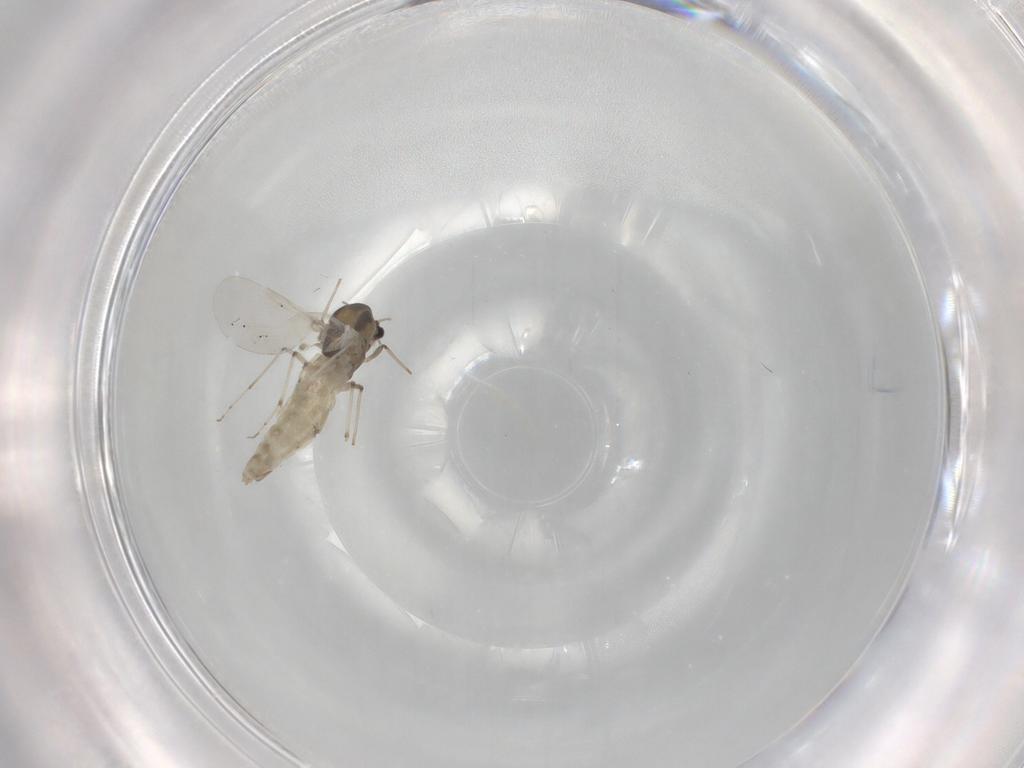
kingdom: Animalia
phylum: Arthropoda
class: Insecta
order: Diptera
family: Chironomidae
